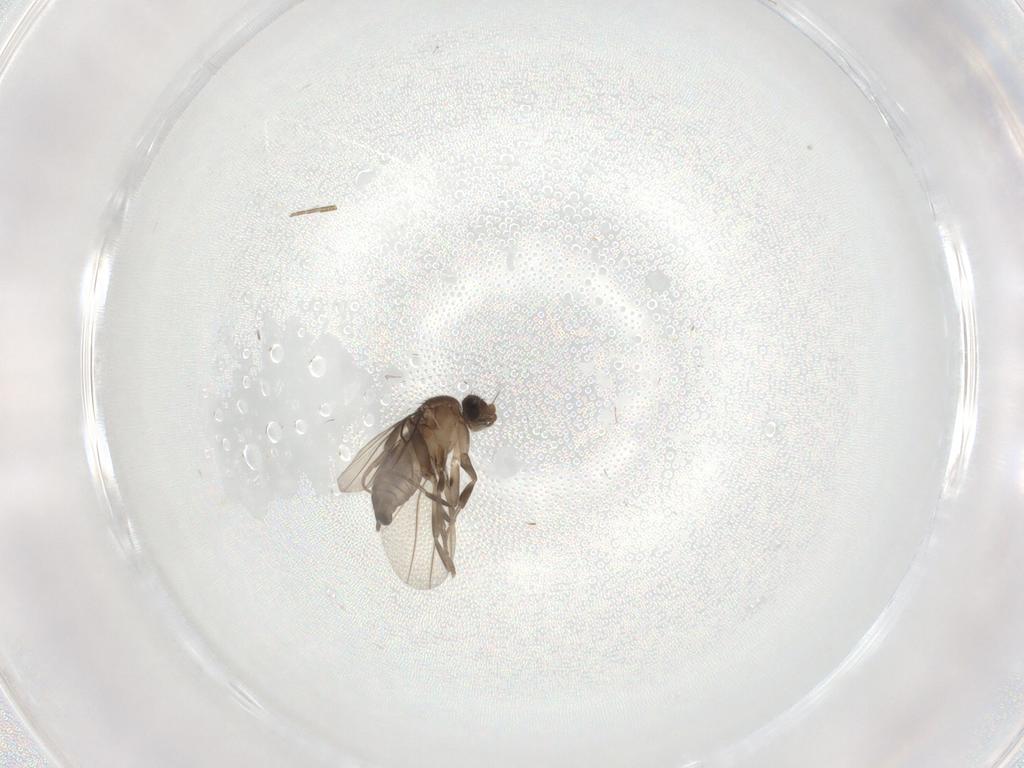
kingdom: Animalia
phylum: Arthropoda
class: Insecta
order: Diptera
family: Phoridae
